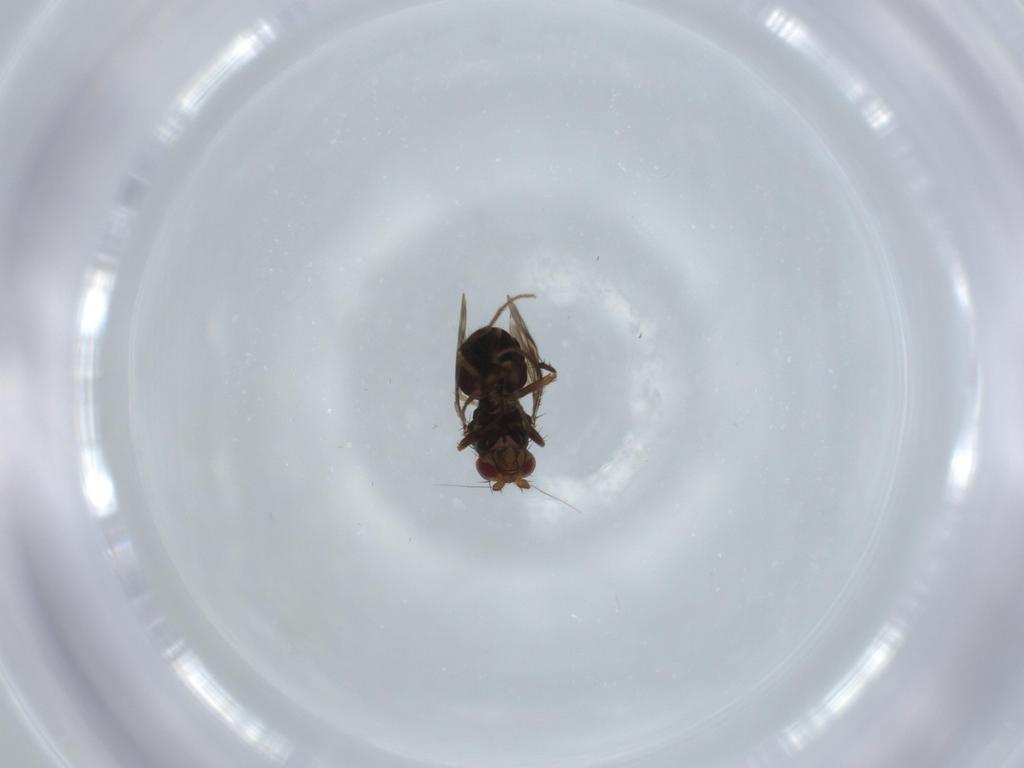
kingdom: Animalia
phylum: Arthropoda
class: Insecta
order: Diptera
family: Sphaeroceridae
